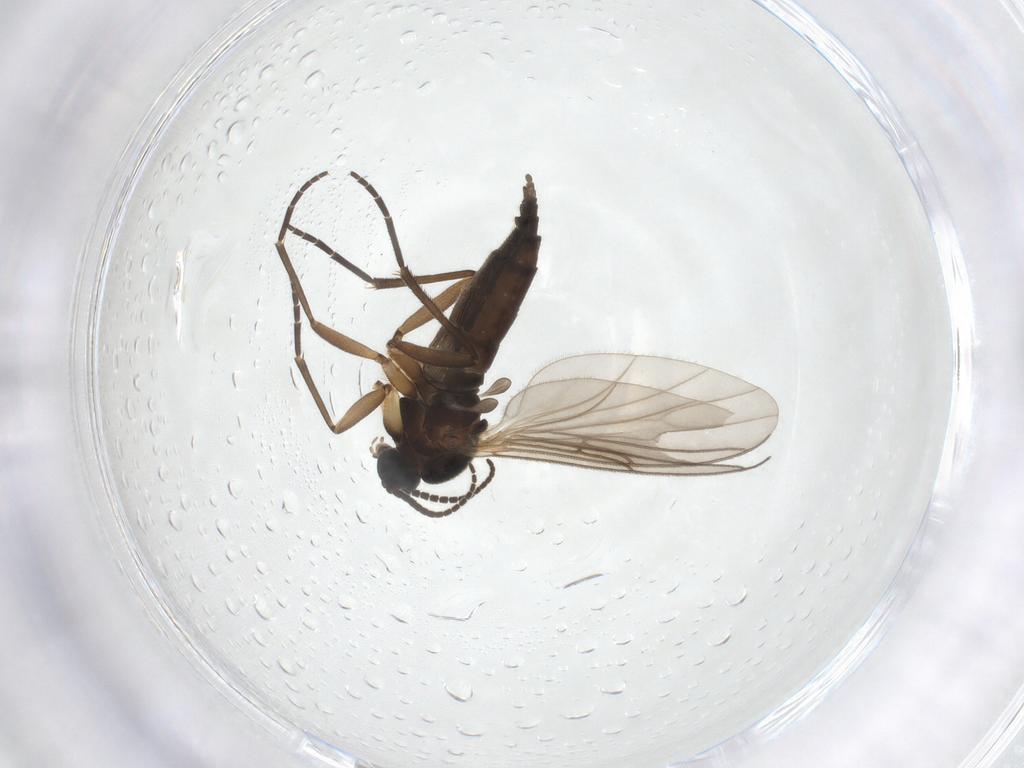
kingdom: Animalia
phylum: Arthropoda
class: Insecta
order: Diptera
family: Sciaridae
